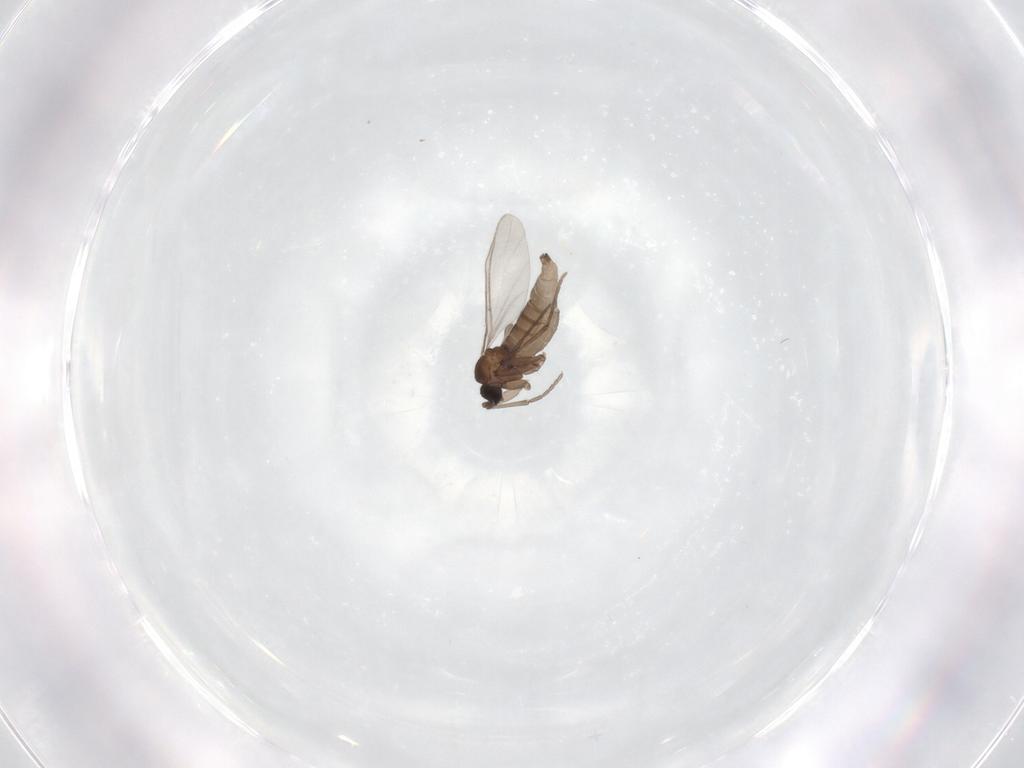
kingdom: Animalia
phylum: Arthropoda
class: Insecta
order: Diptera
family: Sciaridae
